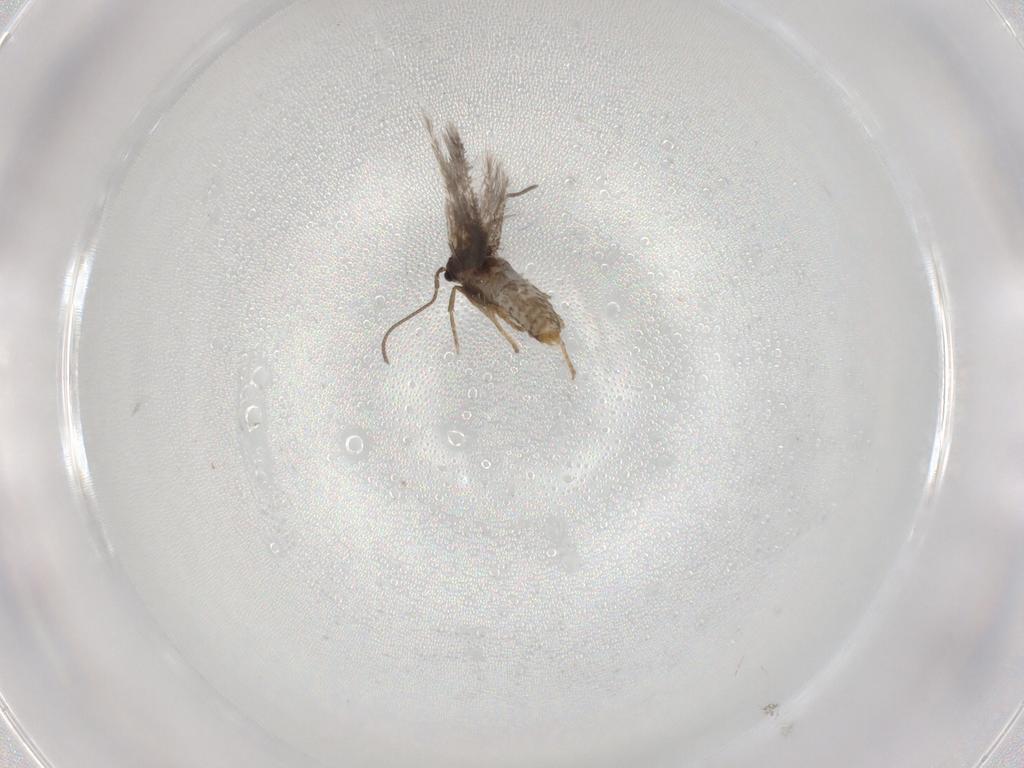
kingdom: Animalia
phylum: Arthropoda
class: Insecta
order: Lepidoptera
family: Nepticulidae
